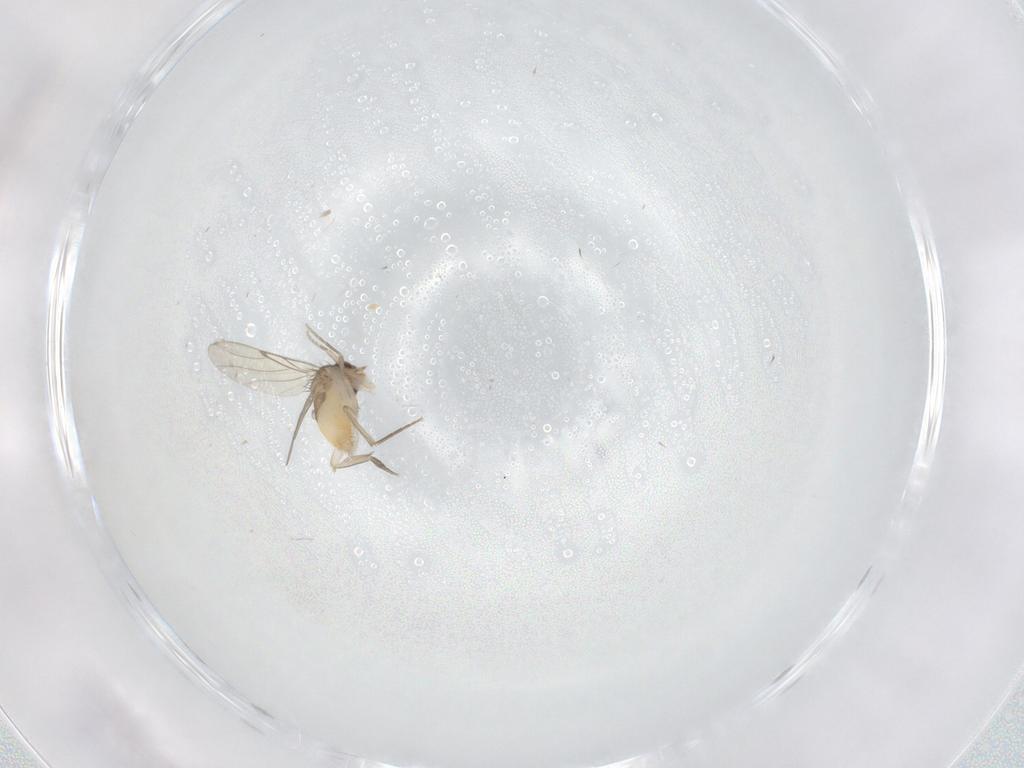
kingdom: Animalia
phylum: Arthropoda
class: Insecta
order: Diptera
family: Phoridae
